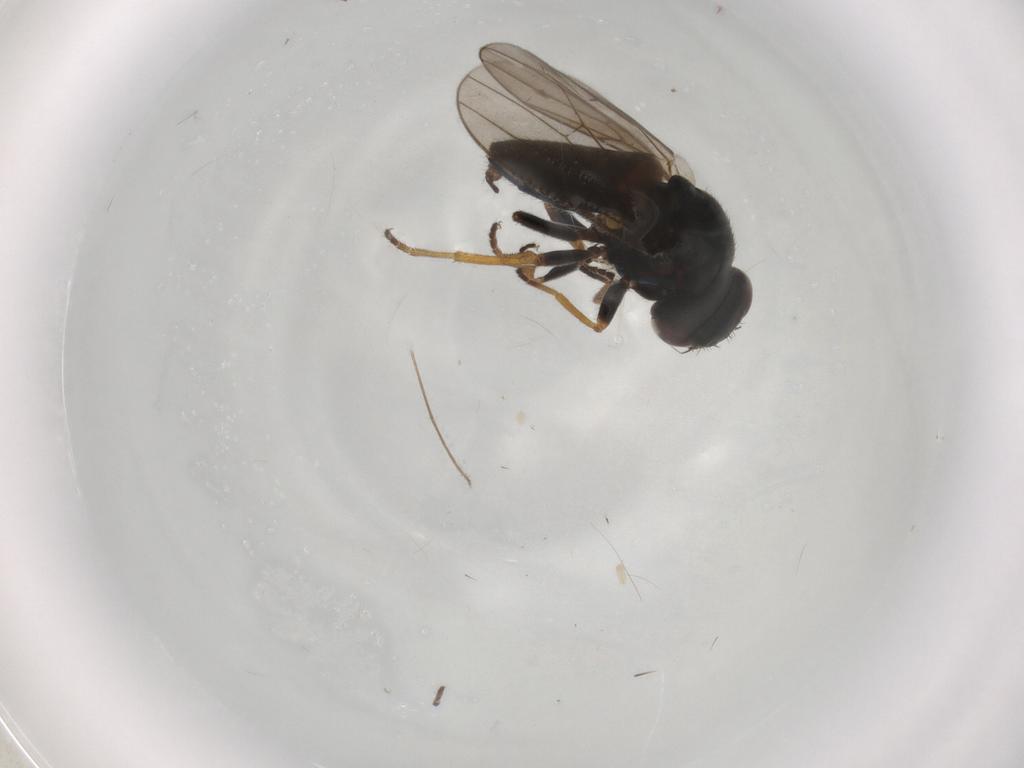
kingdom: Animalia
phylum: Arthropoda
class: Insecta
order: Diptera
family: Chloropidae
